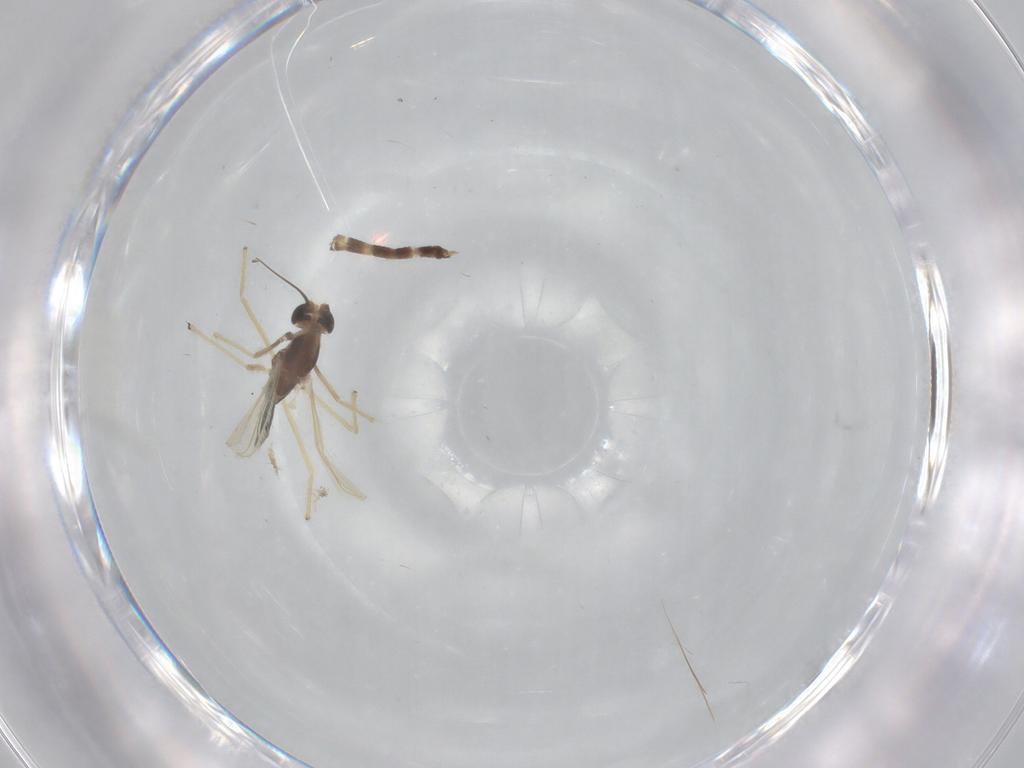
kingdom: Animalia
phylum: Arthropoda
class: Insecta
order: Diptera
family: Chironomidae
